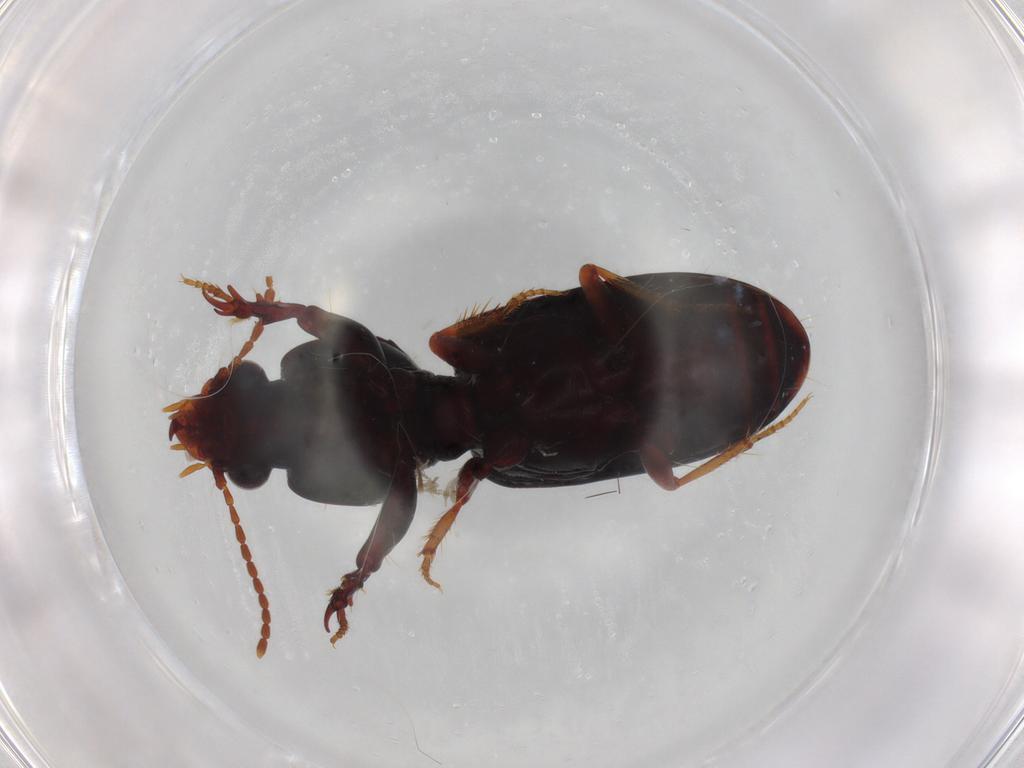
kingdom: Animalia
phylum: Arthropoda
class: Insecta
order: Coleoptera
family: Carabidae
